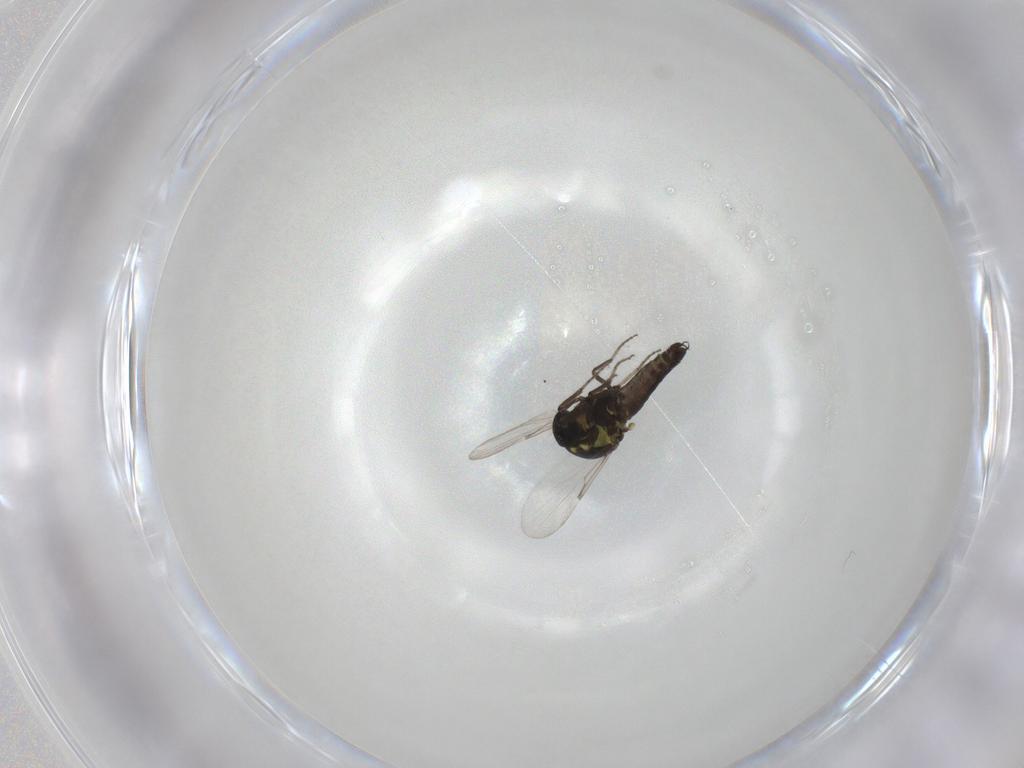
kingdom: Animalia
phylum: Arthropoda
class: Insecta
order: Diptera
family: Ceratopogonidae
